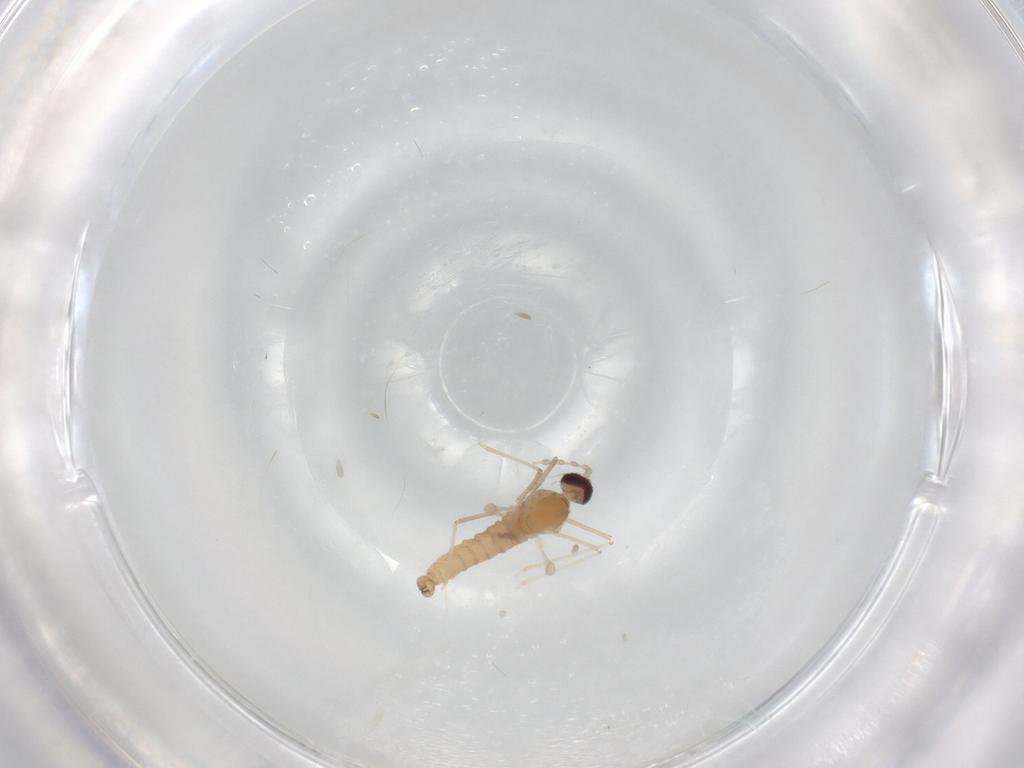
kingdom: Animalia
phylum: Arthropoda
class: Insecta
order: Diptera
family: Cecidomyiidae
